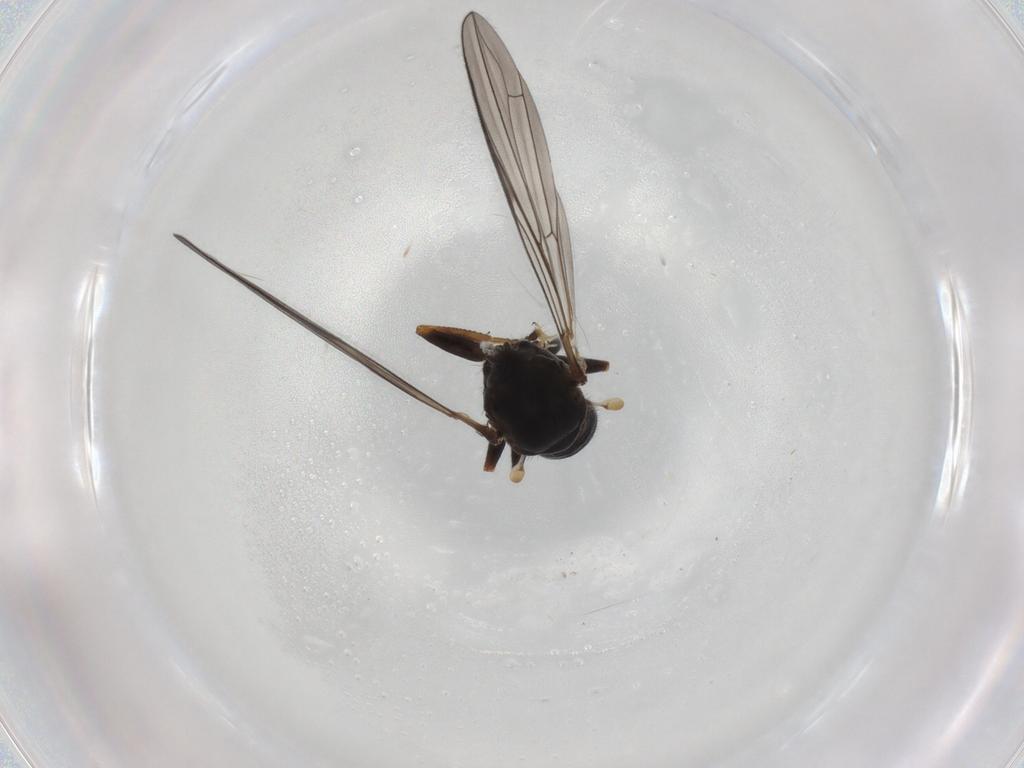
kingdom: Animalia
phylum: Arthropoda
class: Insecta
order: Diptera
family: Pipunculidae
